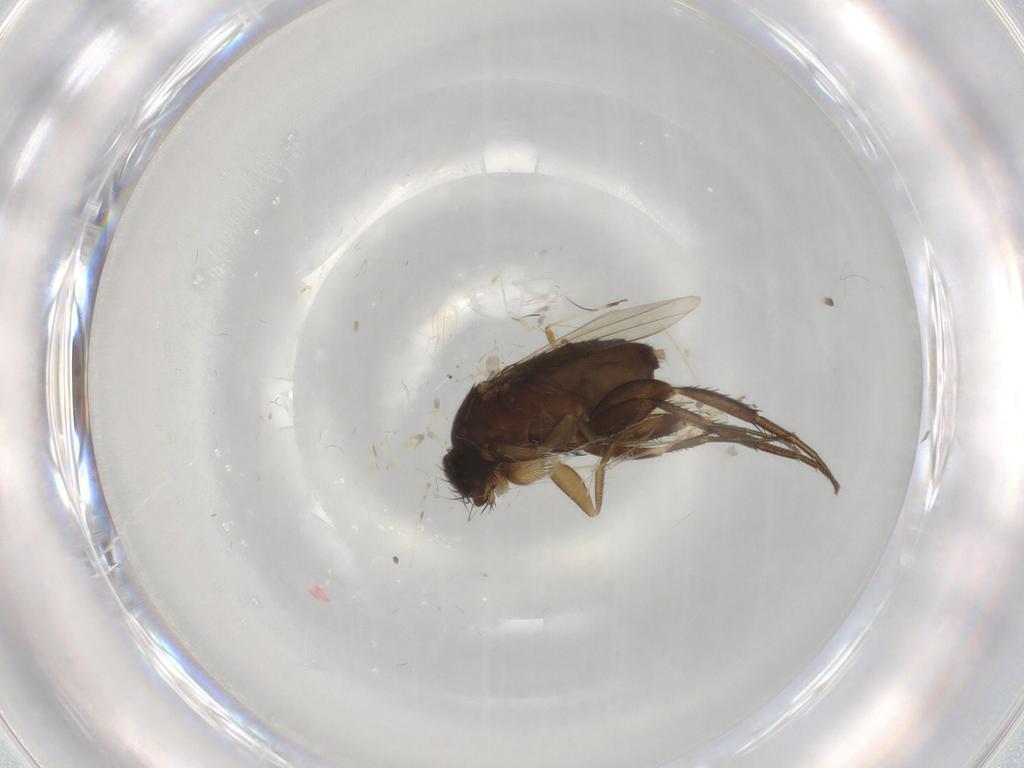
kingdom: Animalia
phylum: Arthropoda
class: Insecta
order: Diptera
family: Phoridae
